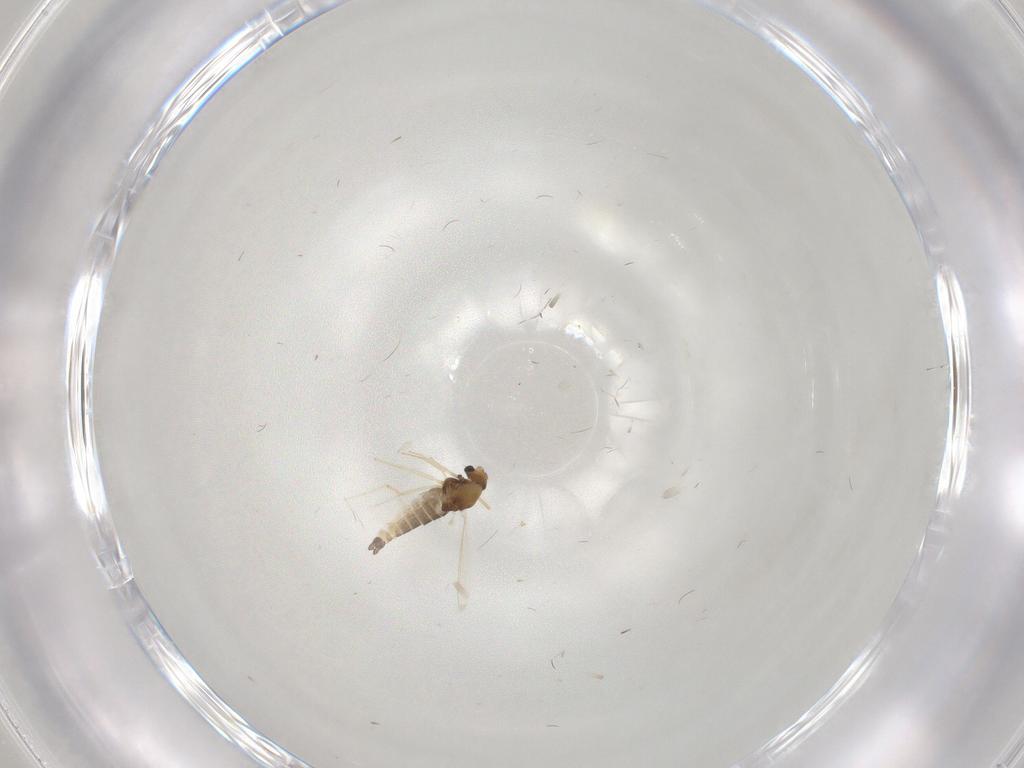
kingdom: Animalia
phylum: Arthropoda
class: Insecta
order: Diptera
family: Chironomidae
